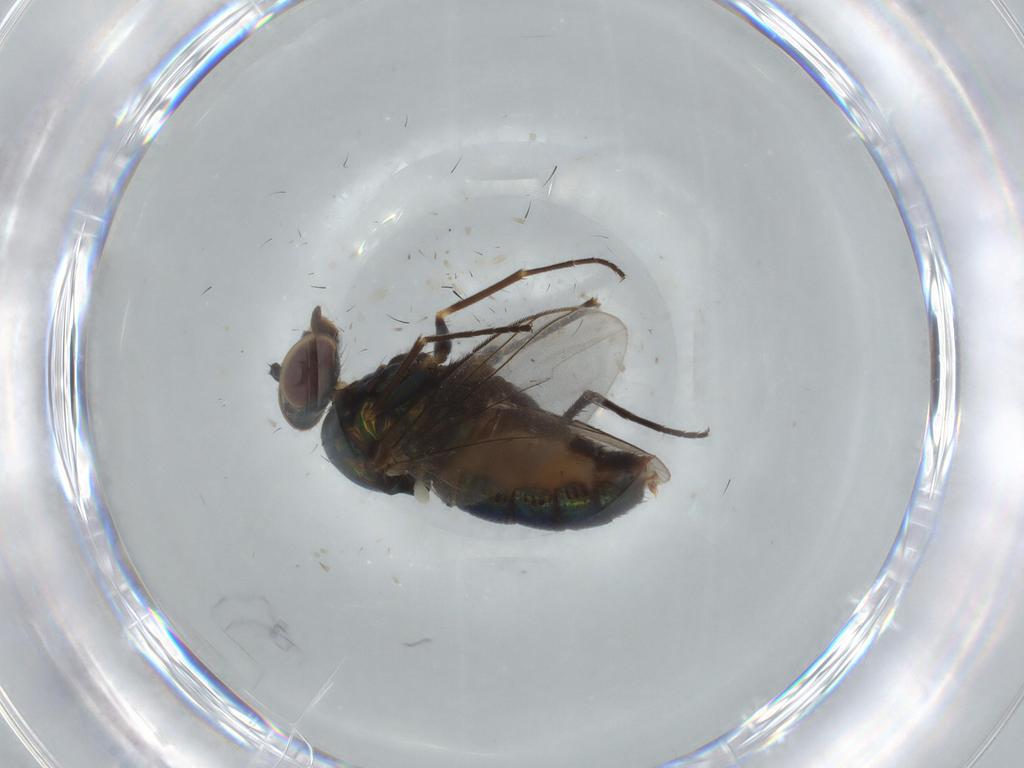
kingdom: Animalia
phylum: Arthropoda
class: Insecta
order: Diptera
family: Dolichopodidae
